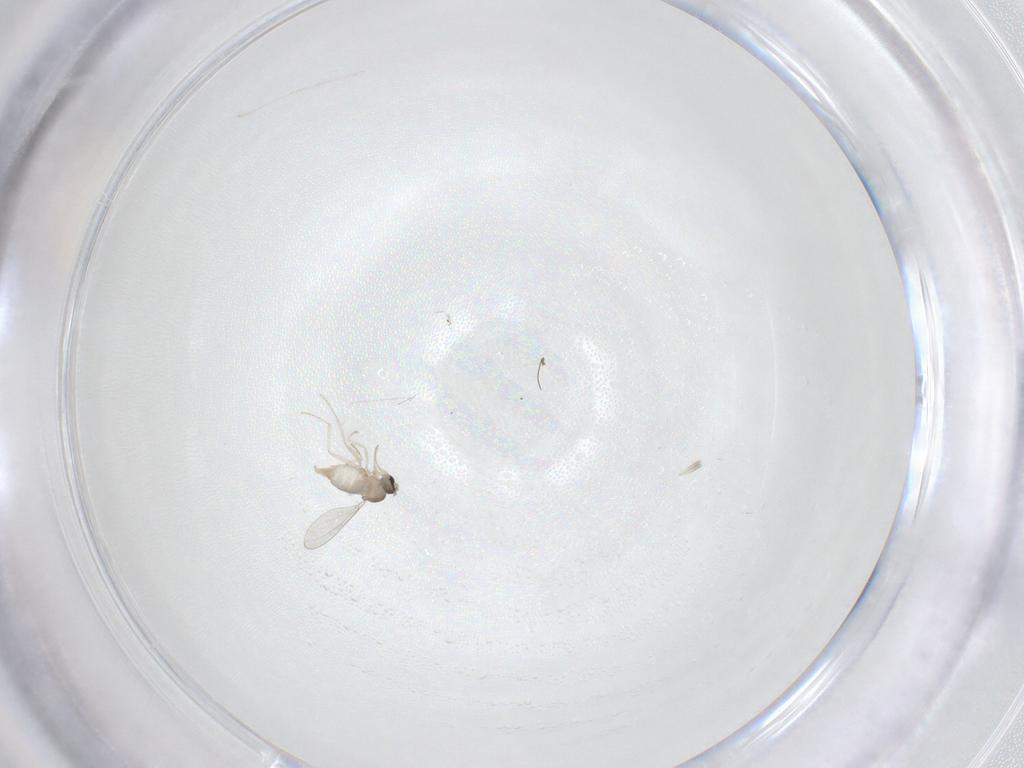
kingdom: Animalia
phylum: Arthropoda
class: Insecta
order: Diptera
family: Cecidomyiidae
